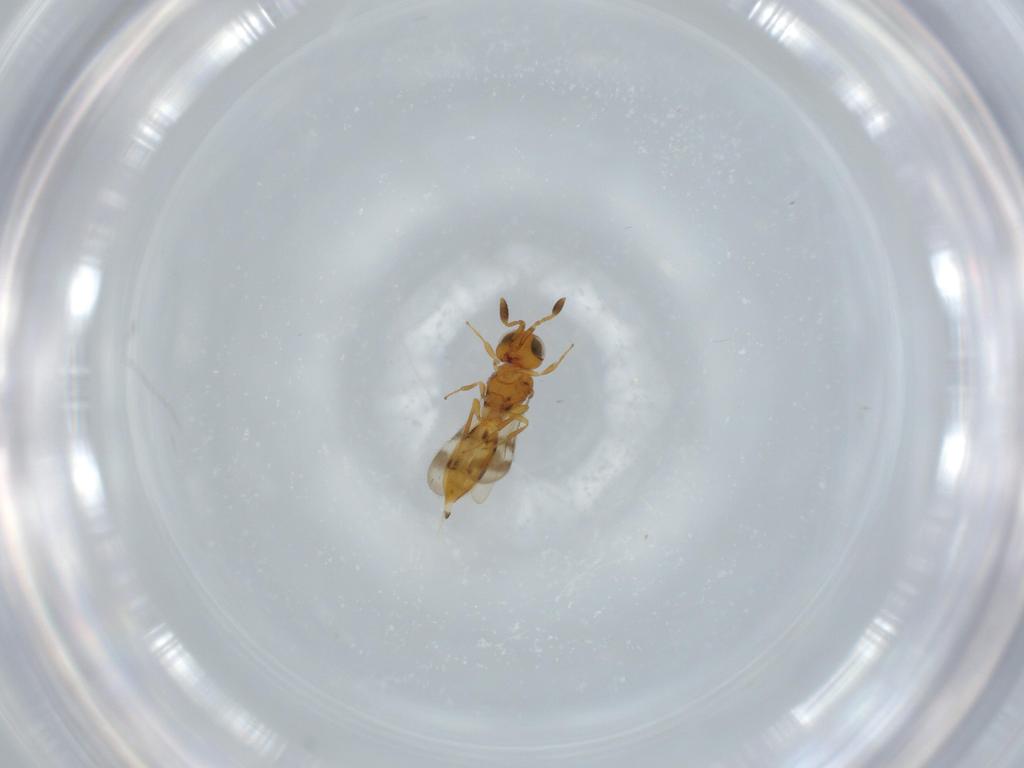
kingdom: Animalia
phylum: Arthropoda
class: Insecta
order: Hymenoptera
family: Scelionidae
